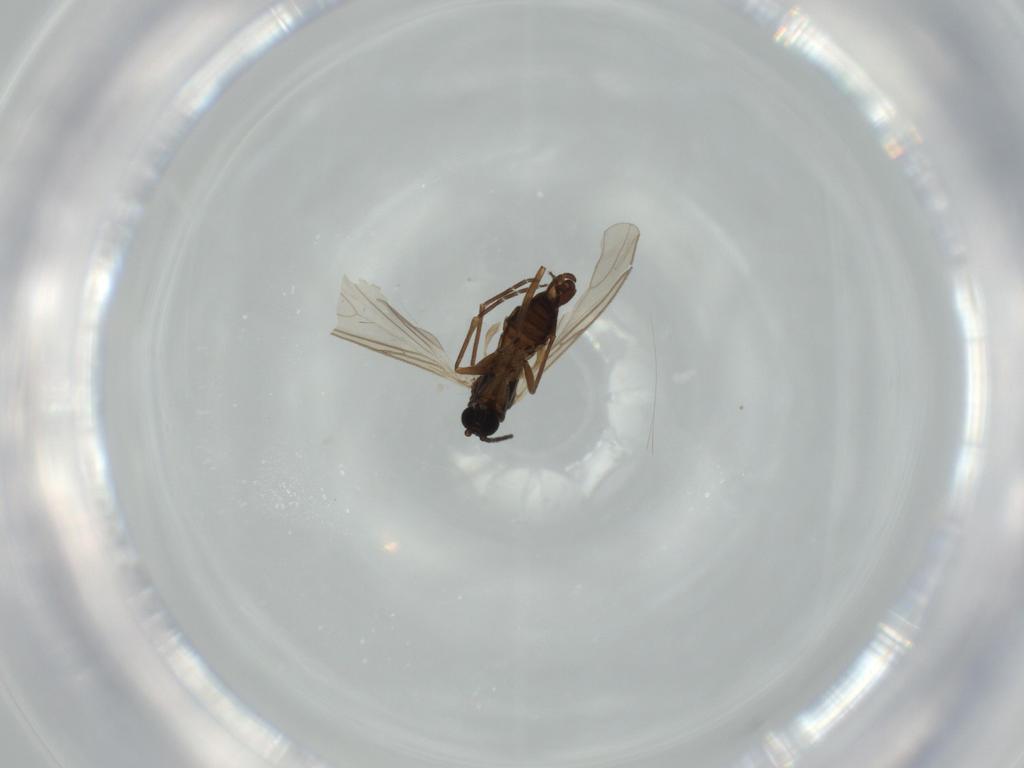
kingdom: Animalia
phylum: Arthropoda
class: Insecta
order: Diptera
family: Sciaridae
